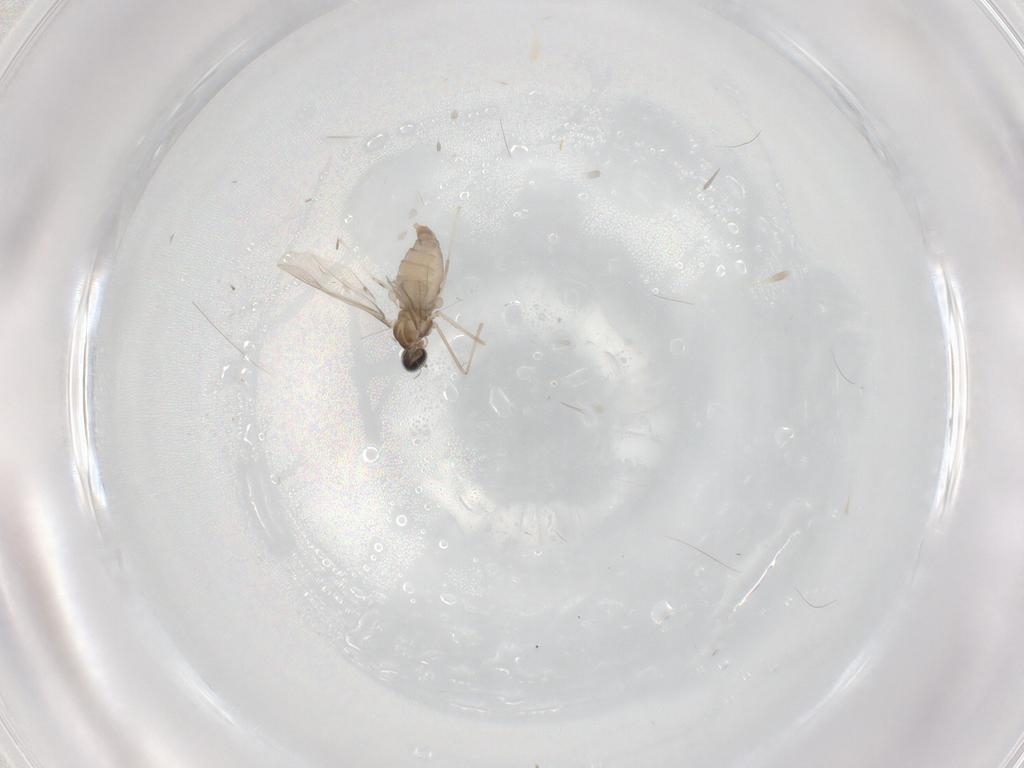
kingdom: Animalia
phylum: Arthropoda
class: Insecta
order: Diptera
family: Cecidomyiidae
